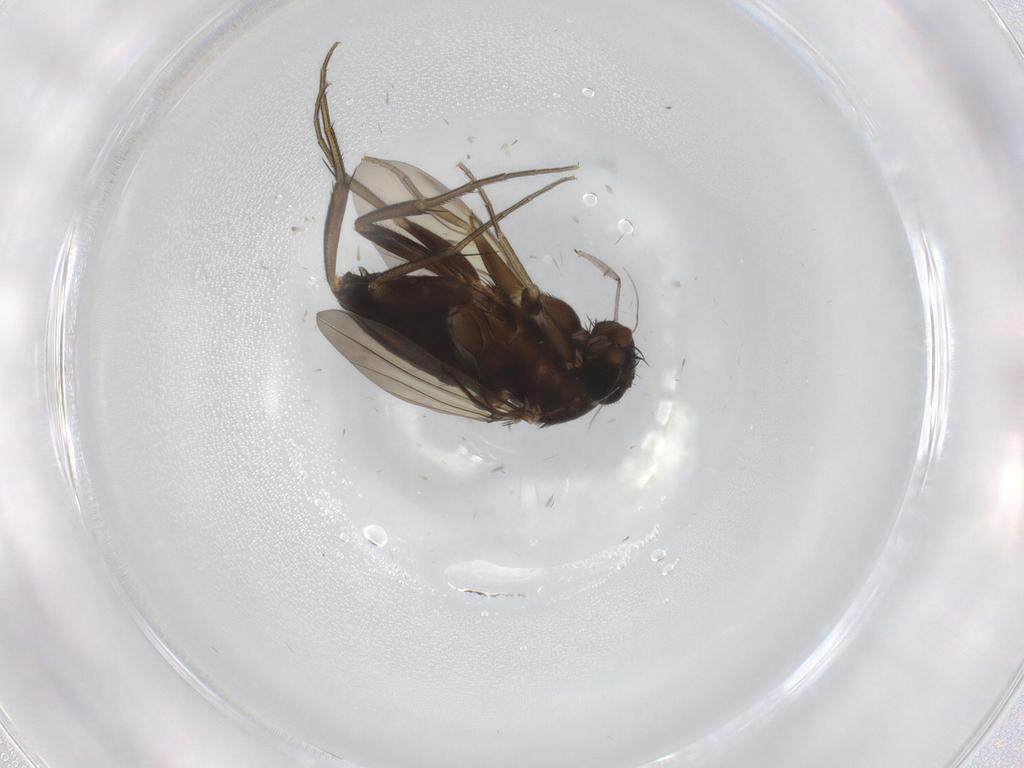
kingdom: Animalia
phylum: Arthropoda
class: Insecta
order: Diptera
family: Phoridae
